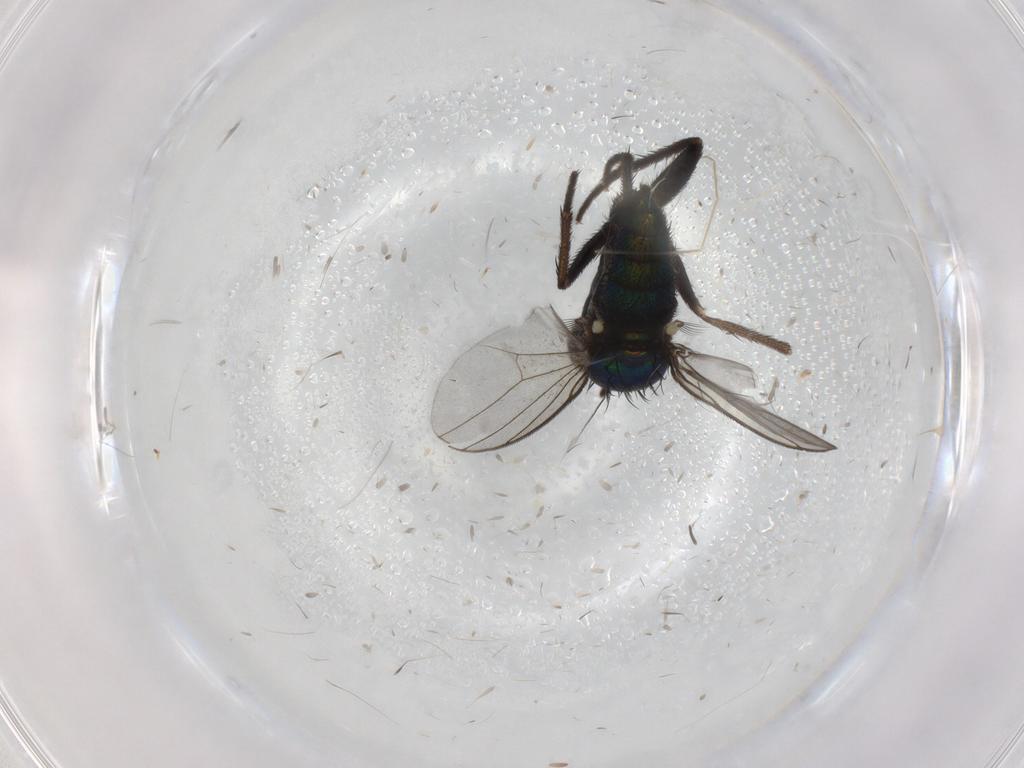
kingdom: Animalia
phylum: Arthropoda
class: Insecta
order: Diptera
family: Dolichopodidae
